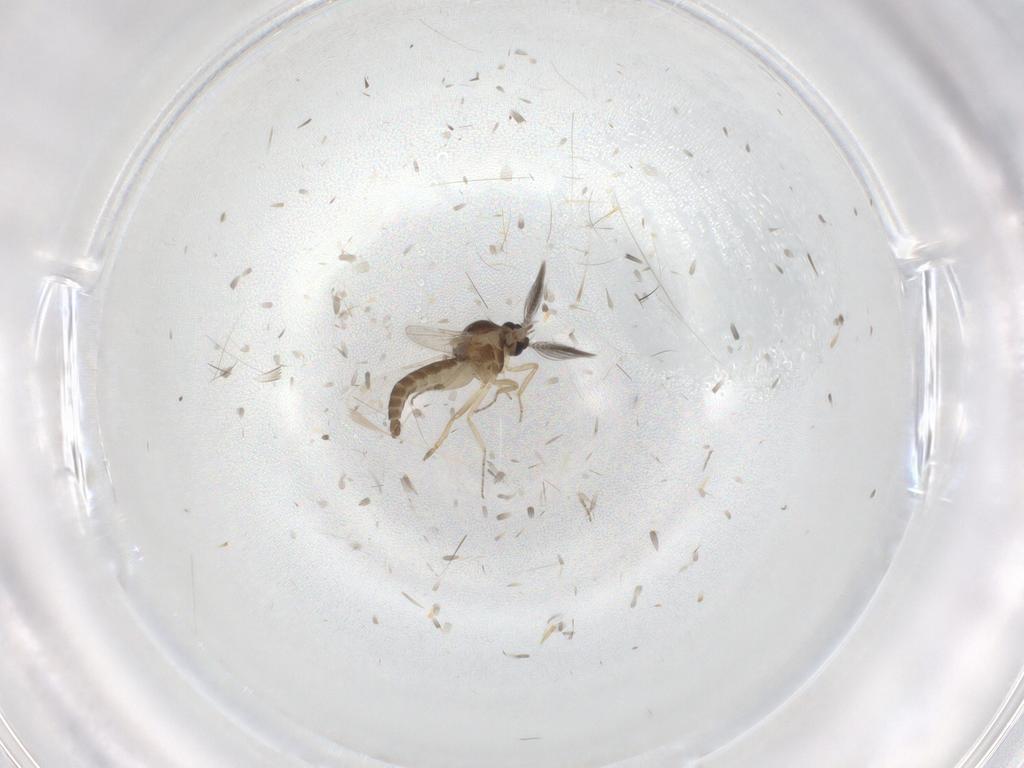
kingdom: Animalia
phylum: Arthropoda
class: Insecta
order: Diptera
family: Ceratopogonidae
